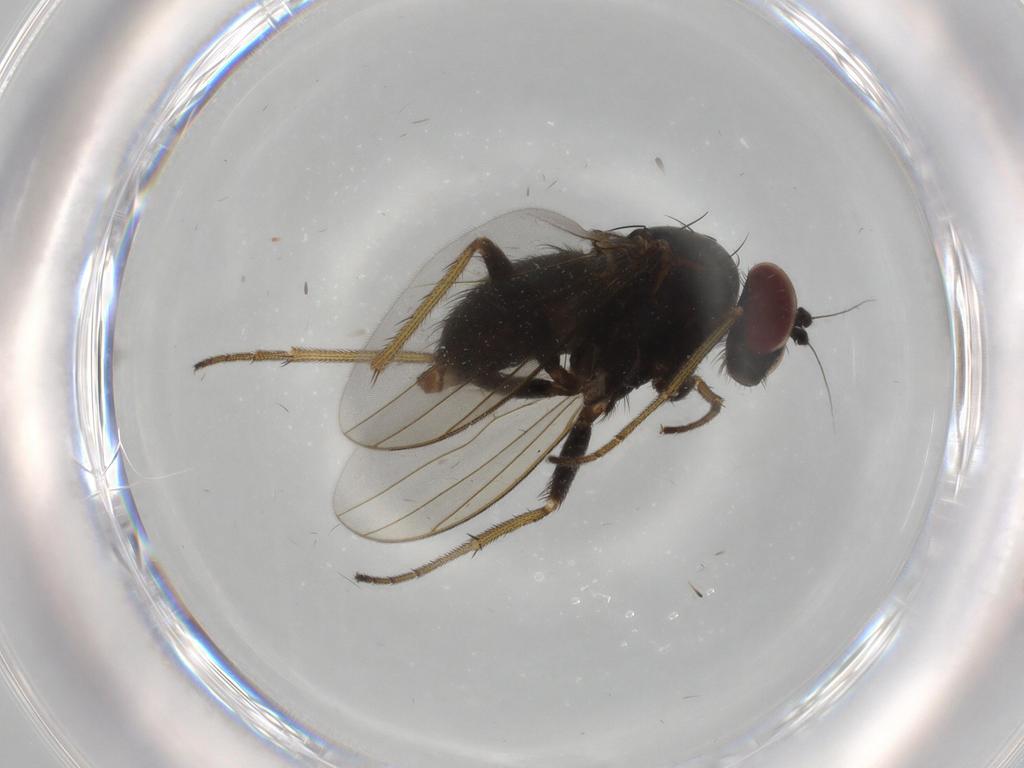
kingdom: Animalia
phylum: Arthropoda
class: Insecta
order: Diptera
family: Dolichopodidae
